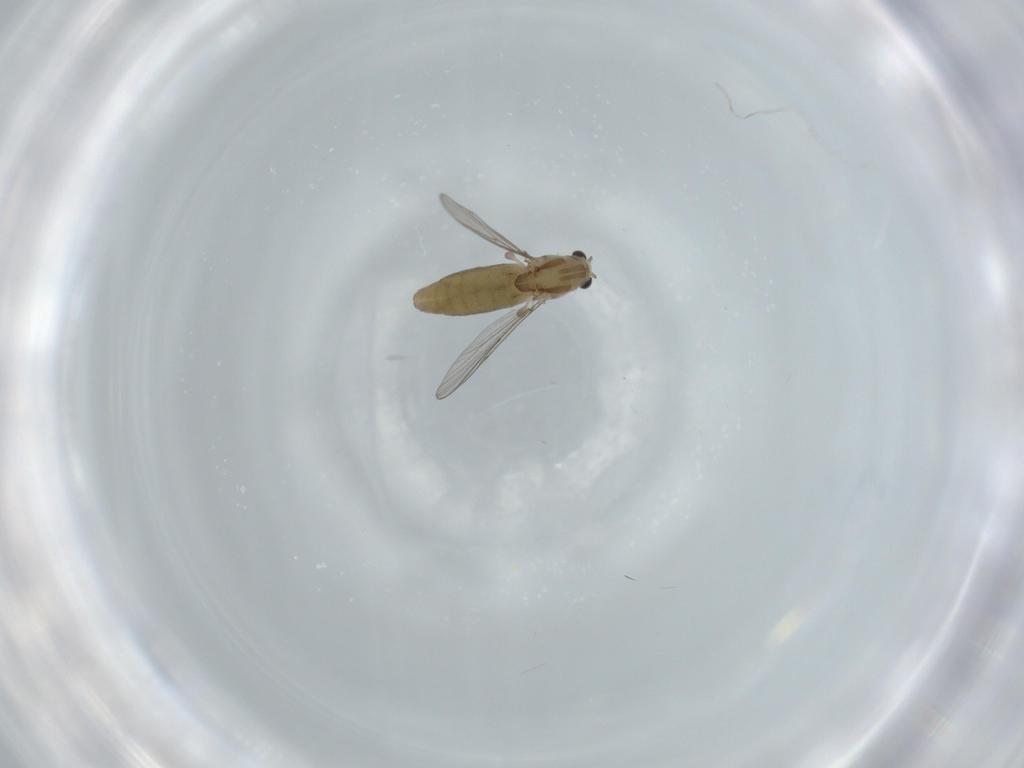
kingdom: Animalia
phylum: Arthropoda
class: Insecta
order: Diptera
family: Chironomidae
